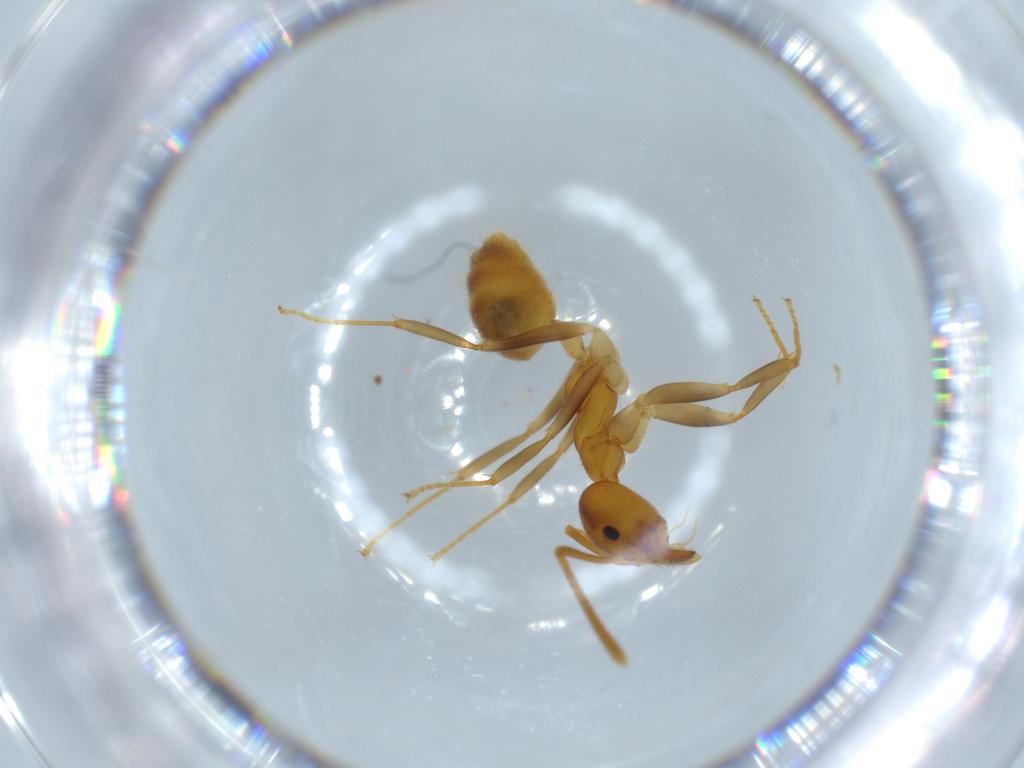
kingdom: Animalia
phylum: Arthropoda
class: Insecta
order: Hymenoptera
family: Formicidae
